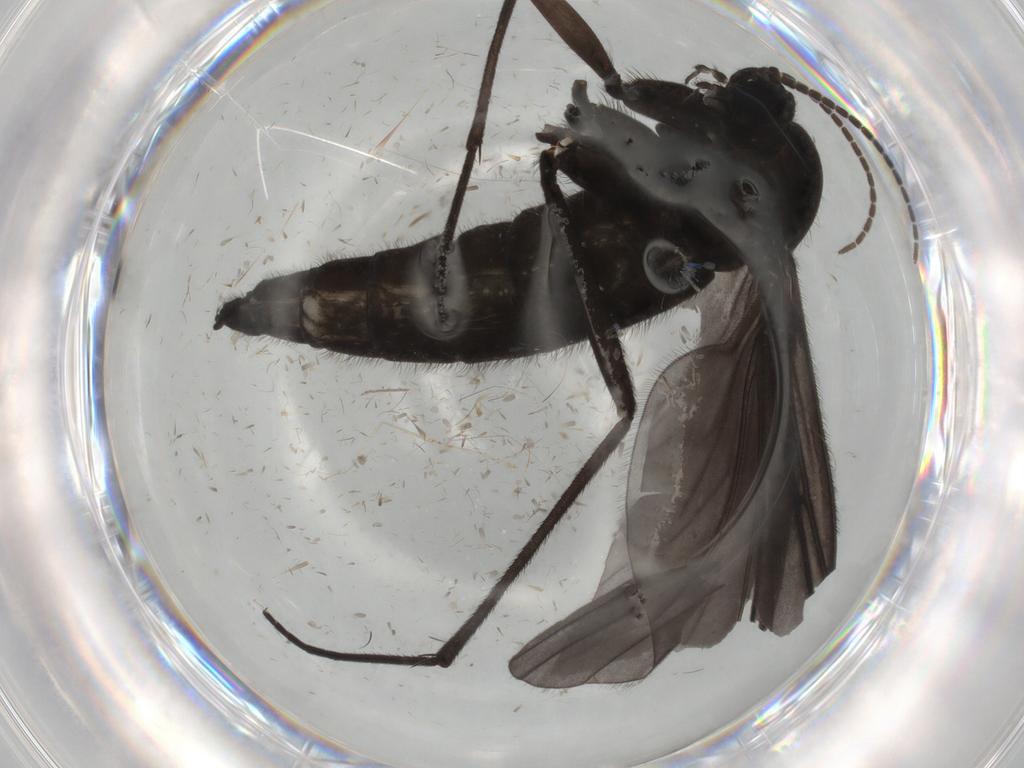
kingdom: Animalia
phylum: Arthropoda
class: Insecta
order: Diptera
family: Sciaridae
